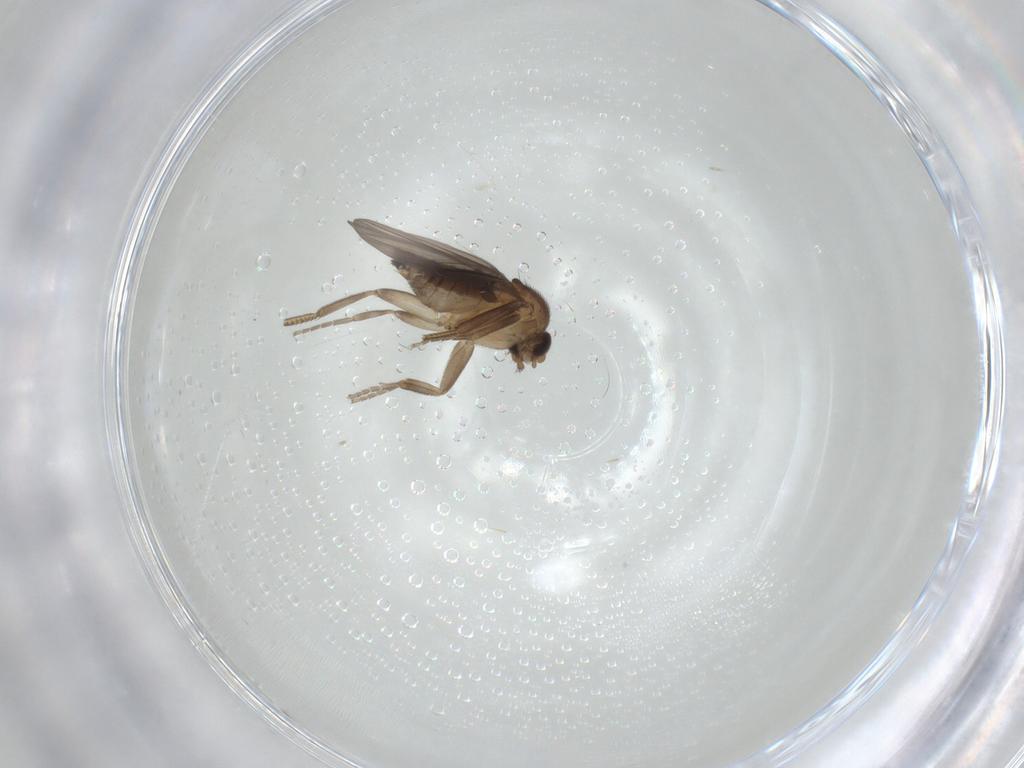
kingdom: Animalia
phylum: Arthropoda
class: Insecta
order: Diptera
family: Phoridae
